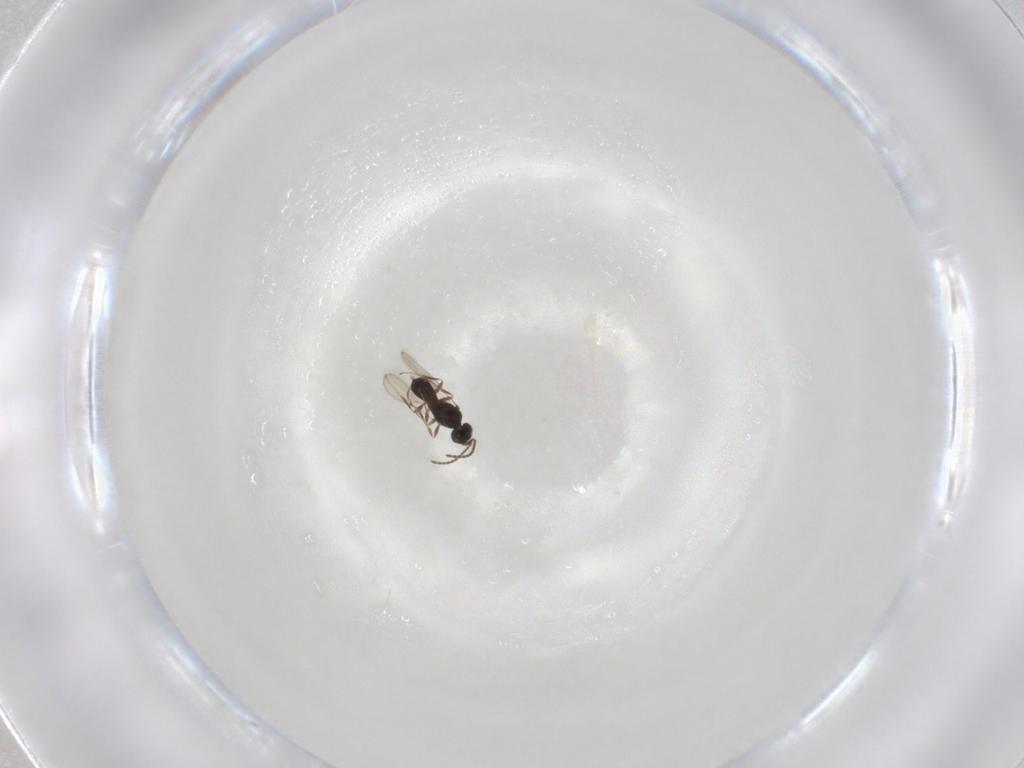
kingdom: Animalia
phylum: Arthropoda
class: Insecta
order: Hymenoptera
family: Scelionidae
